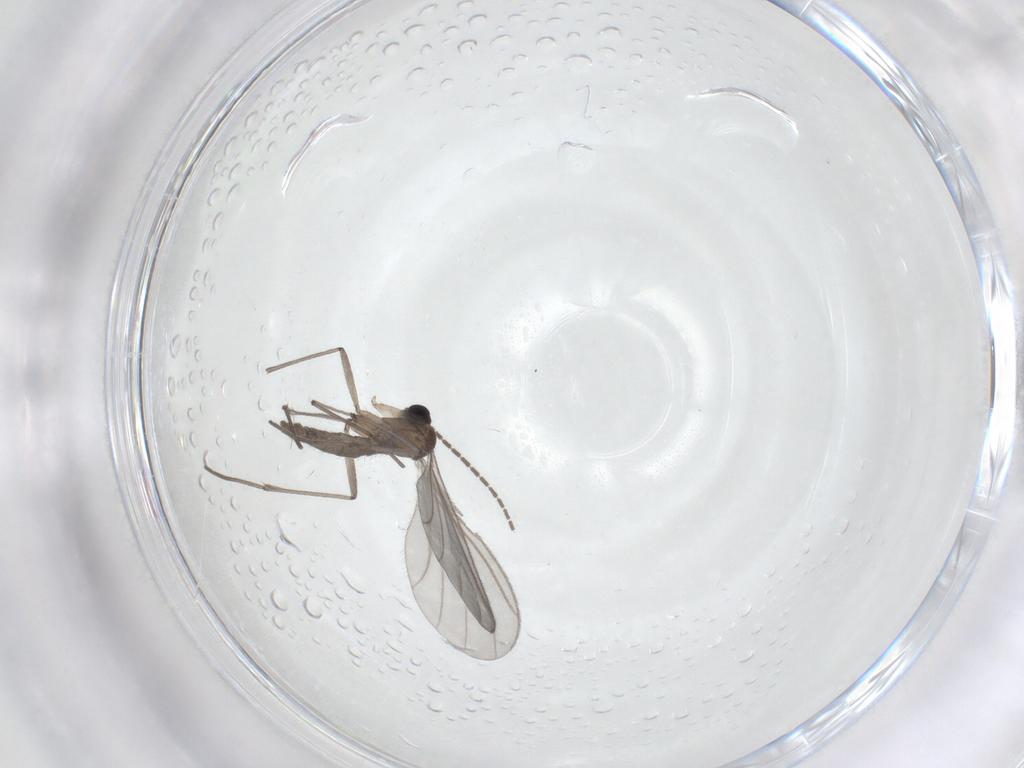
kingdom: Animalia
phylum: Arthropoda
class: Insecta
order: Diptera
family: Sciaridae
